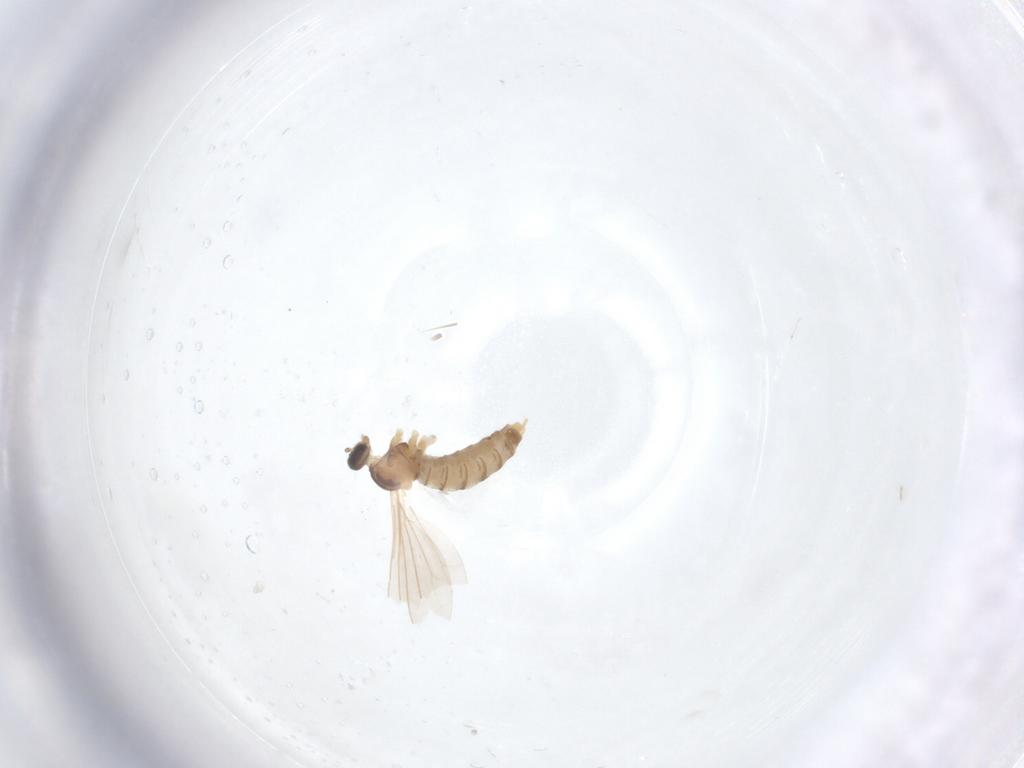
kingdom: Animalia
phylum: Arthropoda
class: Insecta
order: Diptera
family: Cecidomyiidae
